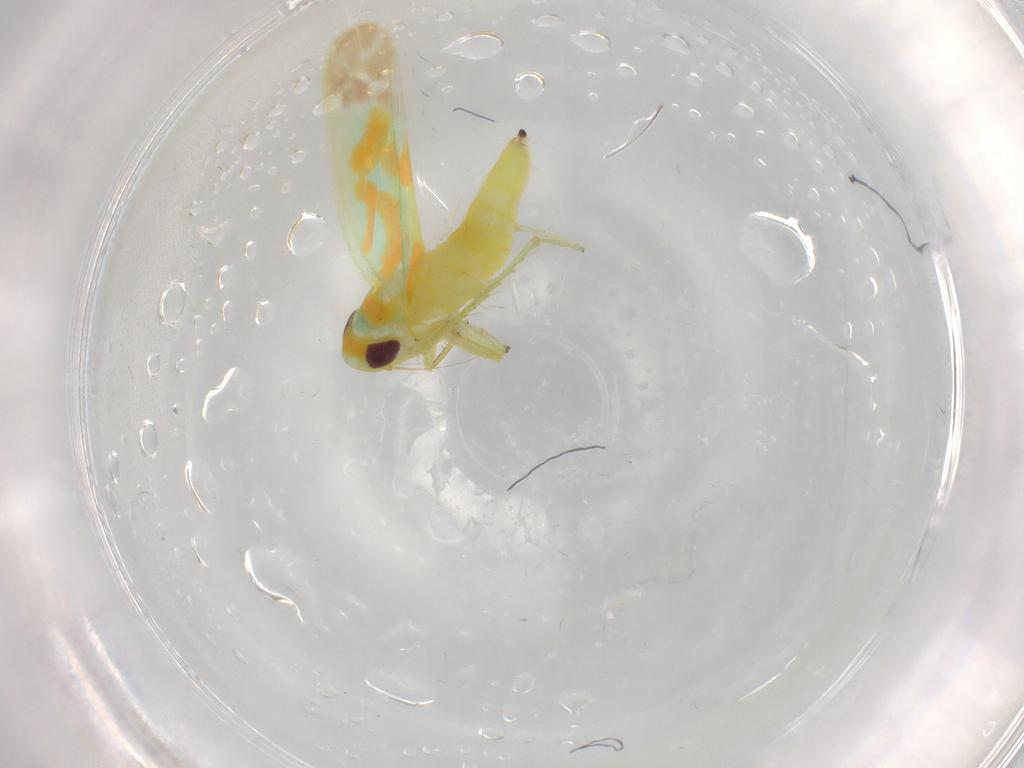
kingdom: Animalia
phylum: Arthropoda
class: Insecta
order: Hemiptera
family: Cicadellidae
